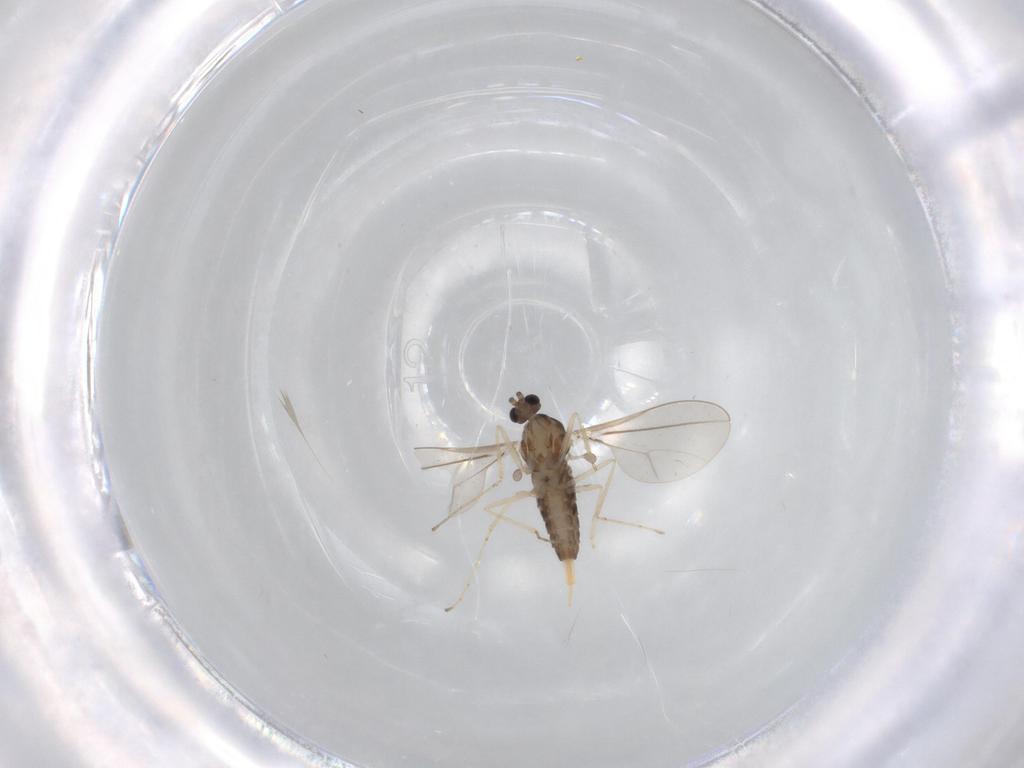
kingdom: Animalia
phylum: Arthropoda
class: Insecta
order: Diptera
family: Cecidomyiidae
